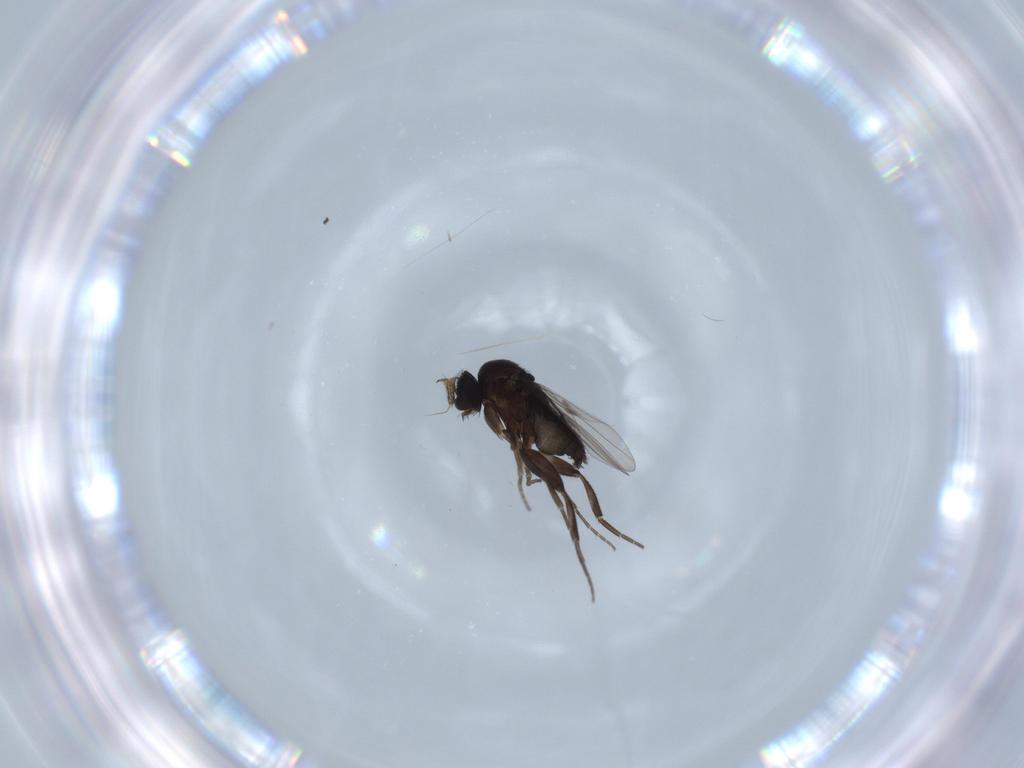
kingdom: Animalia
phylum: Arthropoda
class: Insecta
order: Diptera
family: Phoridae
